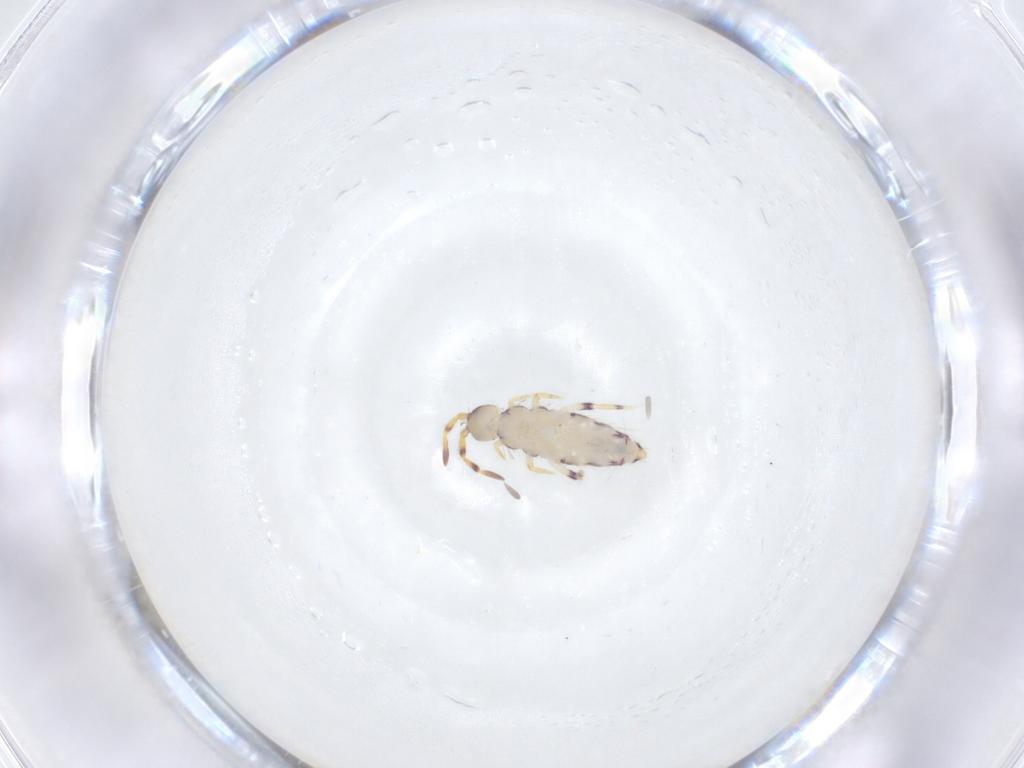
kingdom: Animalia
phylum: Arthropoda
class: Collembola
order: Entomobryomorpha
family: Isotomidae
